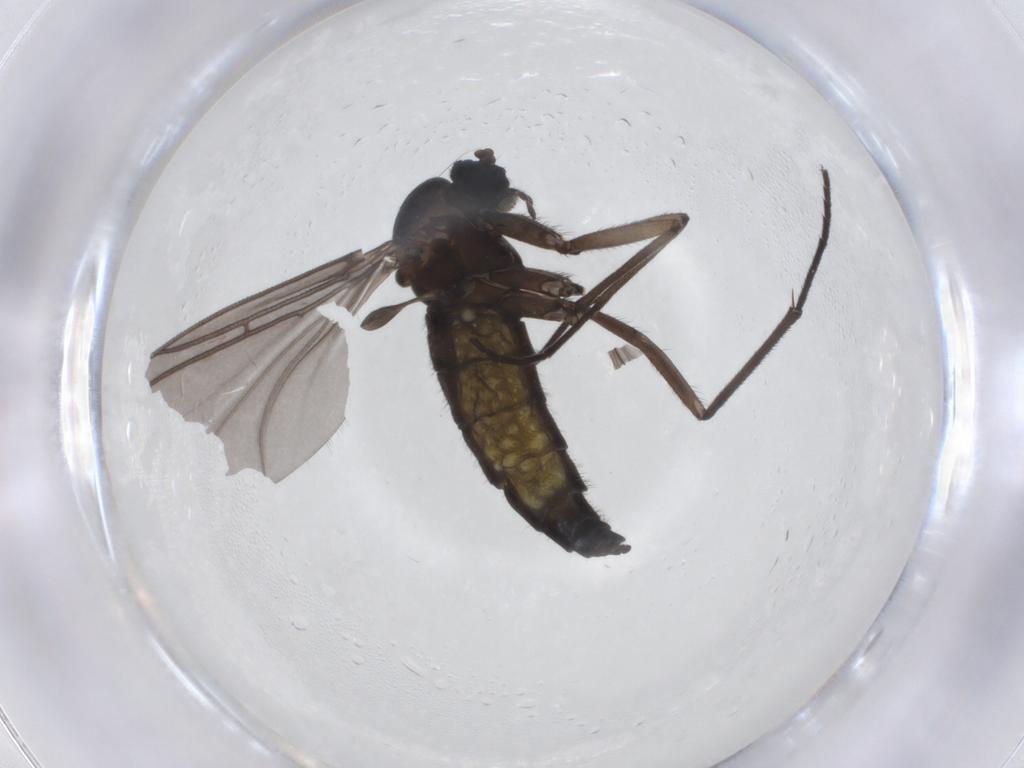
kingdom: Animalia
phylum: Arthropoda
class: Insecta
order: Diptera
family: Sciaridae
